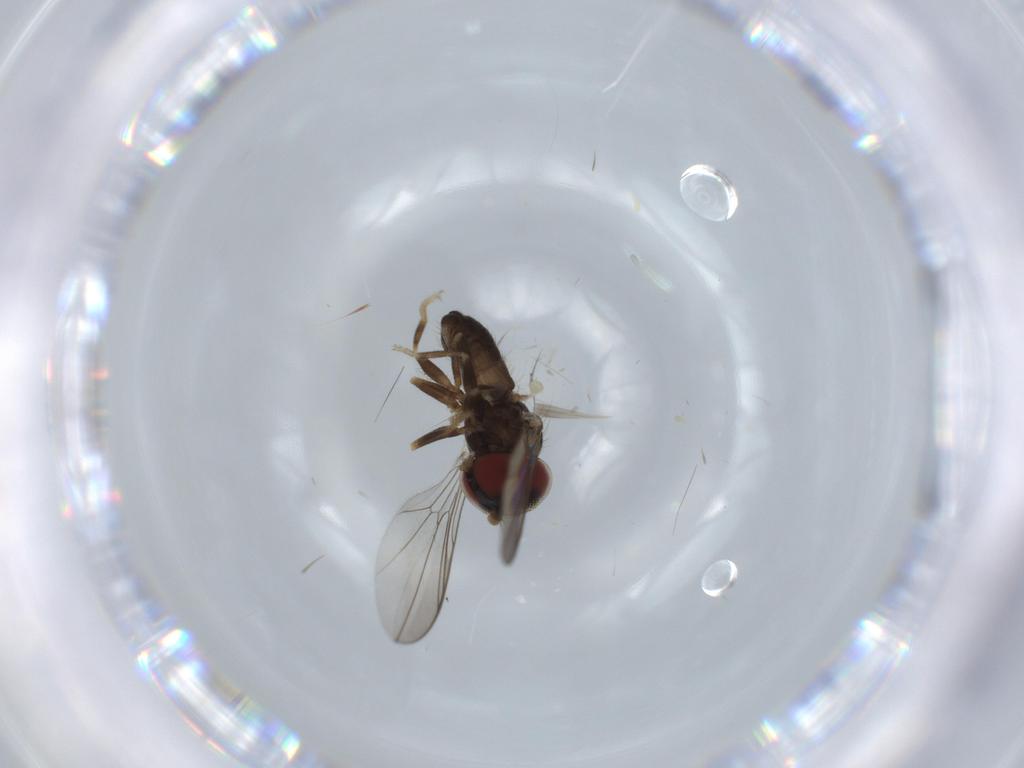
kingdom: Animalia
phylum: Arthropoda
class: Insecta
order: Diptera
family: Pipunculidae
